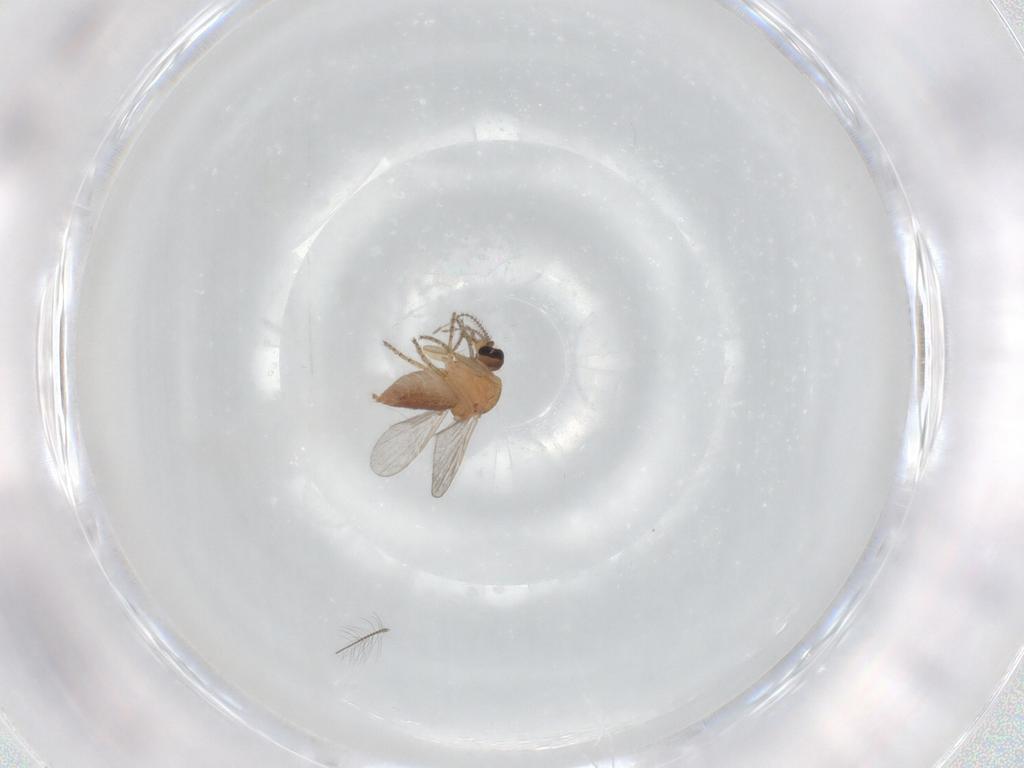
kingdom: Animalia
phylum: Arthropoda
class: Insecta
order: Diptera
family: Ceratopogonidae
